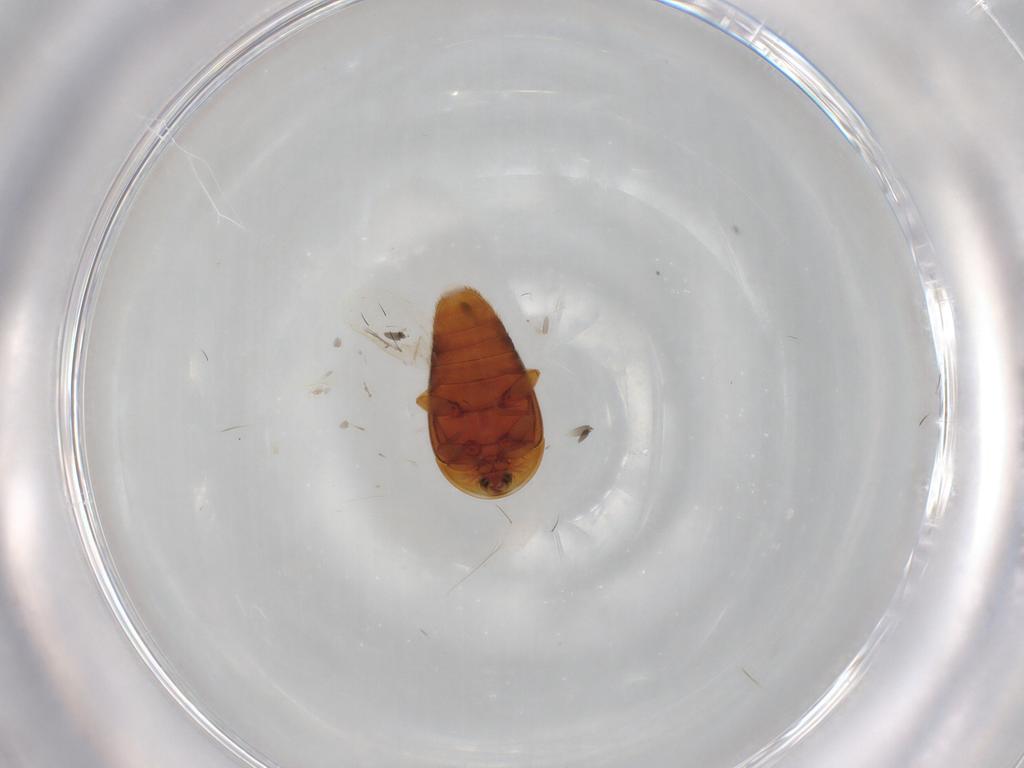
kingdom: Animalia
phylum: Arthropoda
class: Insecta
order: Coleoptera
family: Corylophidae
